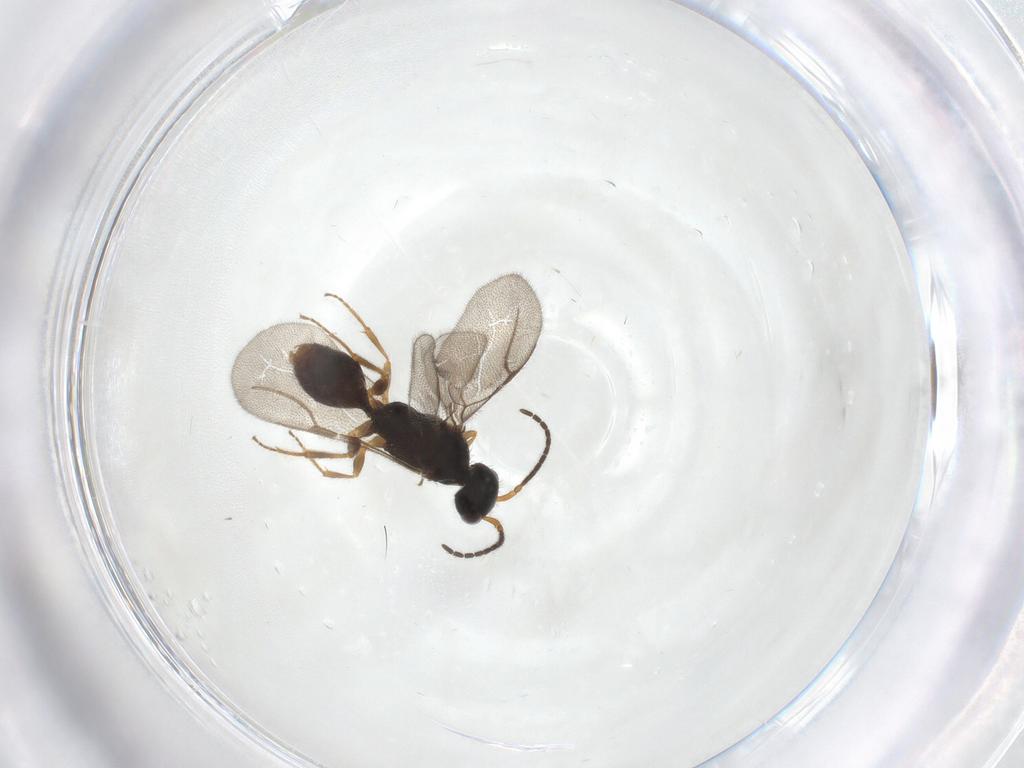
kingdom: Animalia
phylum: Arthropoda
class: Insecta
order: Hymenoptera
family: Bethylidae
